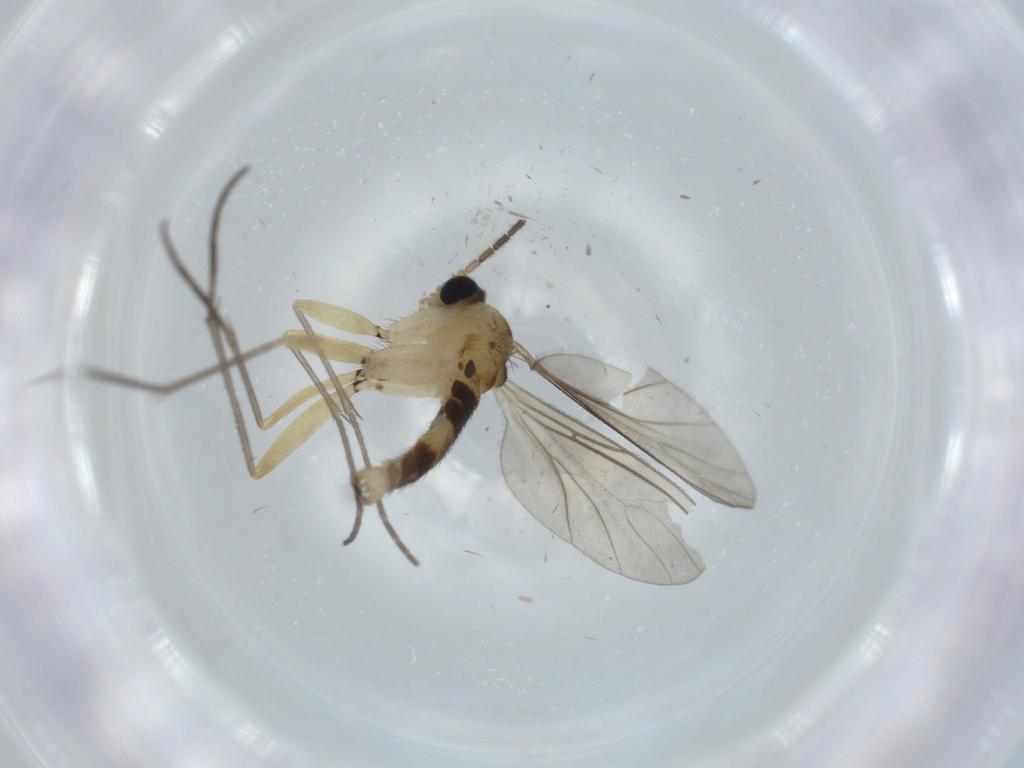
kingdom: Animalia
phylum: Arthropoda
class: Insecta
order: Diptera
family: Sciaridae
